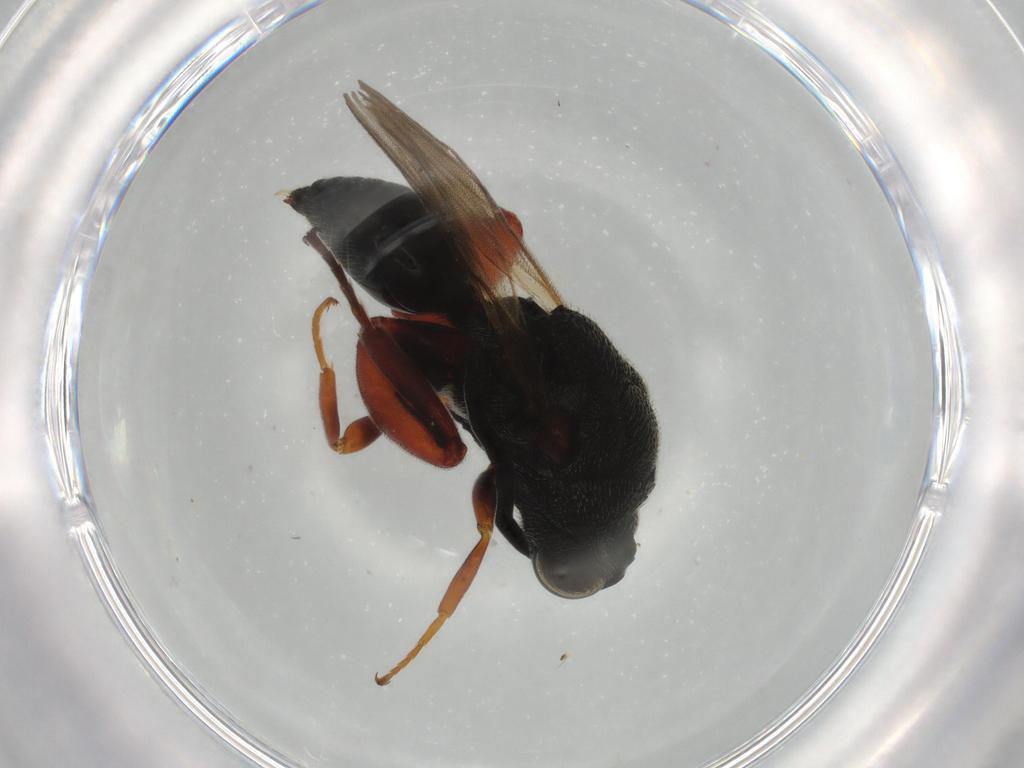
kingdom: Animalia
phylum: Arthropoda
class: Insecta
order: Hymenoptera
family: Crabronidae
